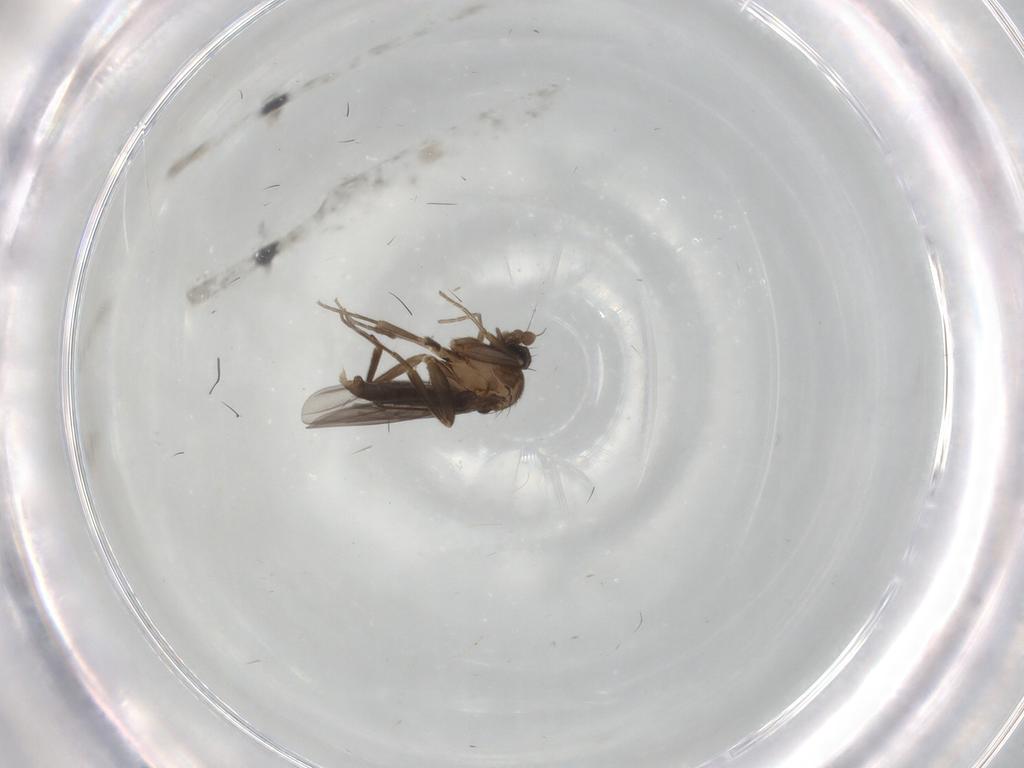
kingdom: Animalia
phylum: Arthropoda
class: Insecta
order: Diptera
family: Phoridae
